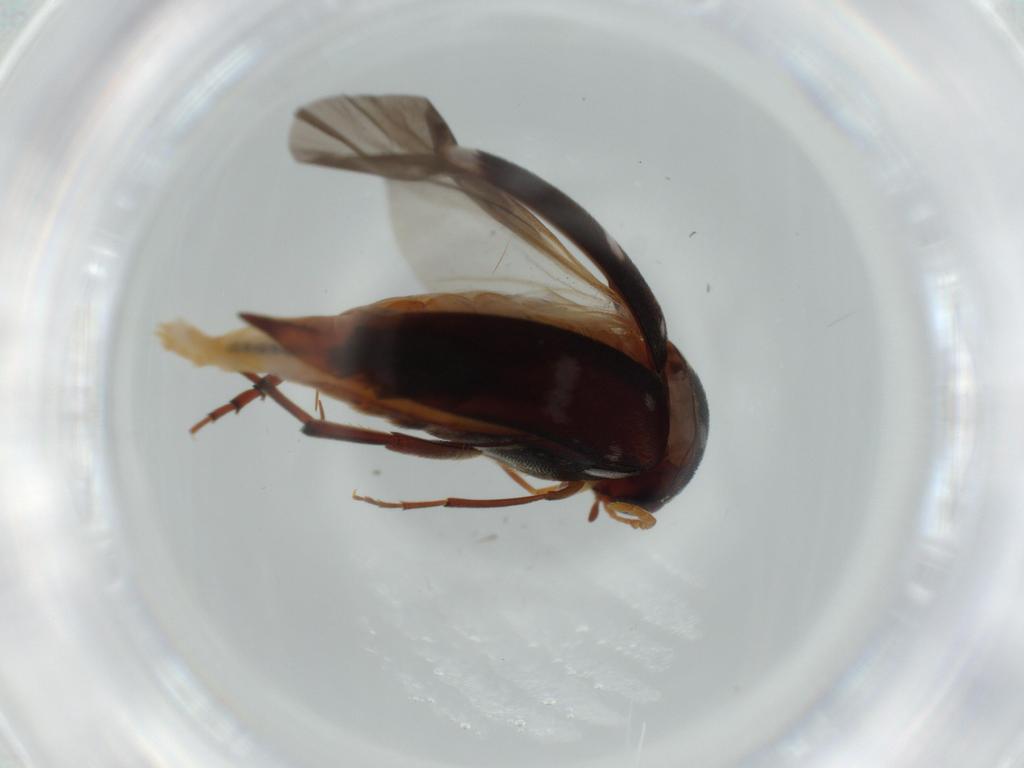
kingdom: Animalia
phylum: Arthropoda
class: Insecta
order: Coleoptera
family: Mordellidae
